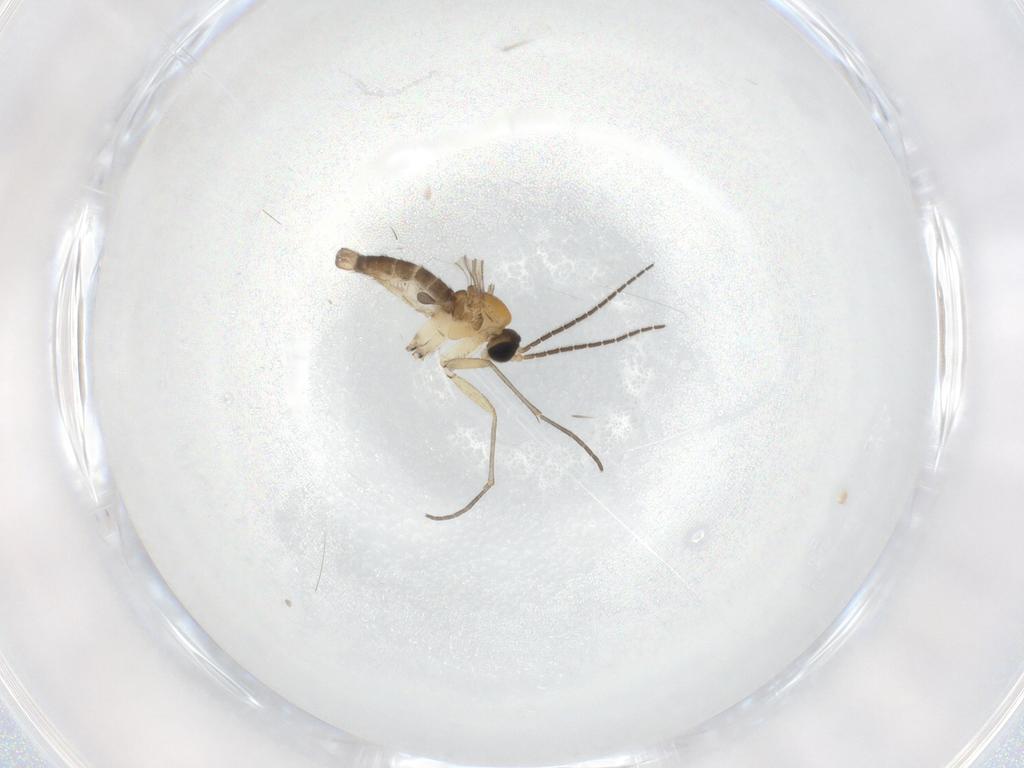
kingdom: Animalia
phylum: Arthropoda
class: Insecta
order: Diptera
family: Sciaridae
